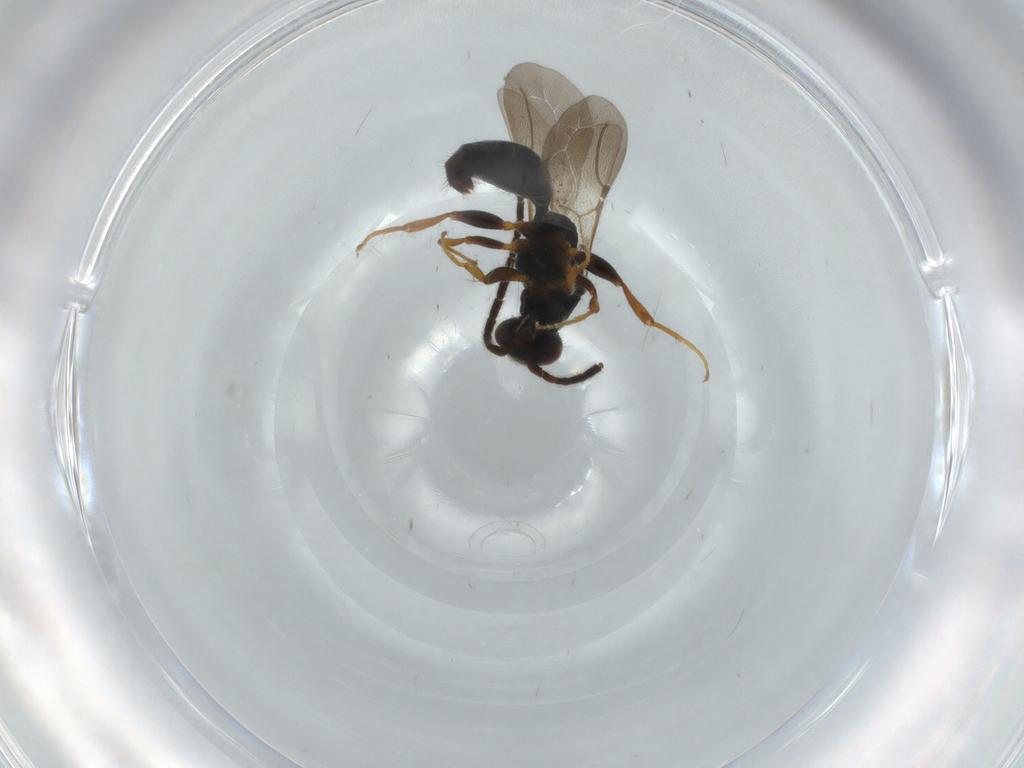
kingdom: Animalia
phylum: Arthropoda
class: Insecta
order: Hymenoptera
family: Bethylidae
